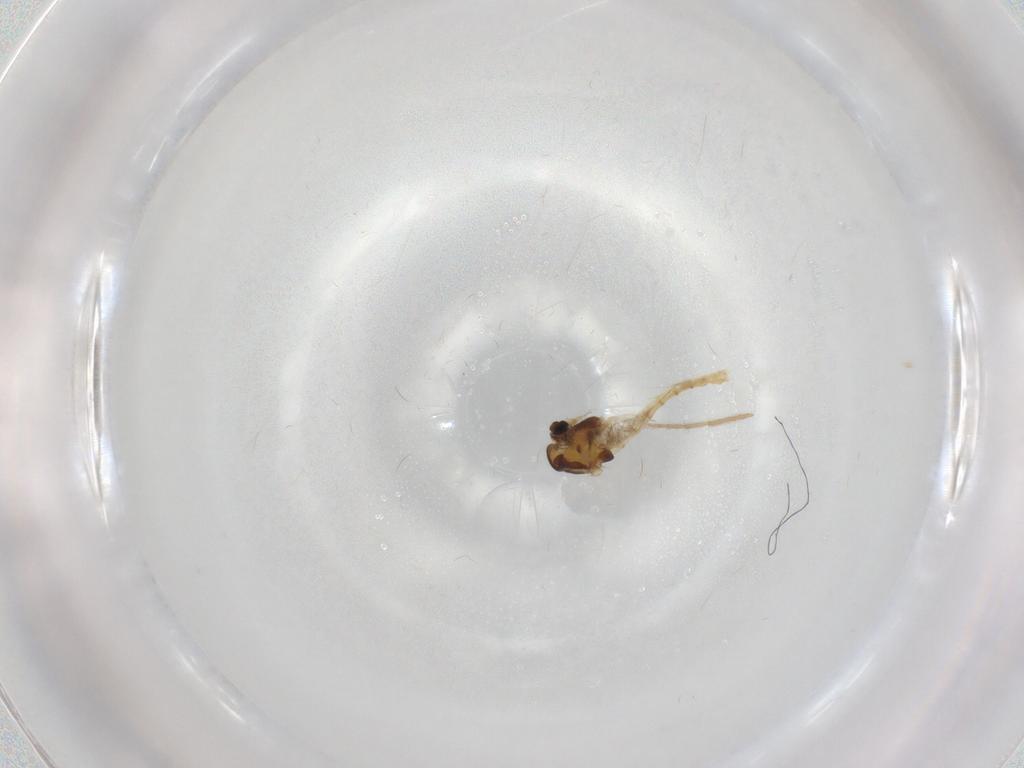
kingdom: Animalia
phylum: Arthropoda
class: Insecta
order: Diptera
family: Chironomidae
